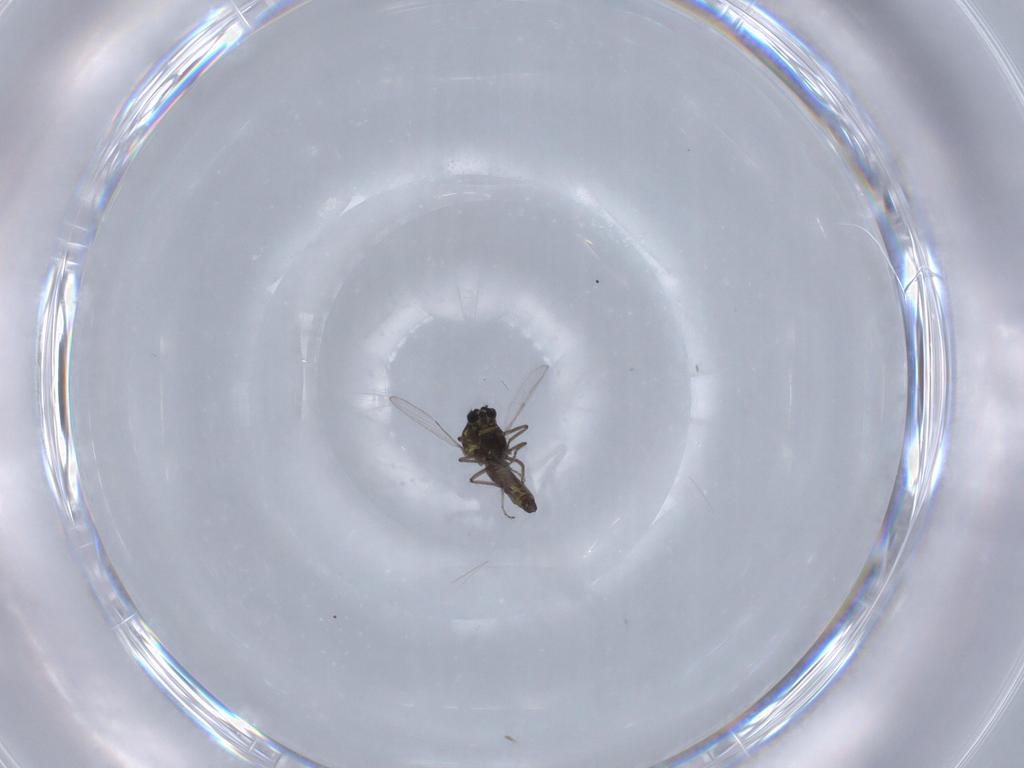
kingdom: Animalia
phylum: Arthropoda
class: Insecta
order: Diptera
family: Ceratopogonidae
